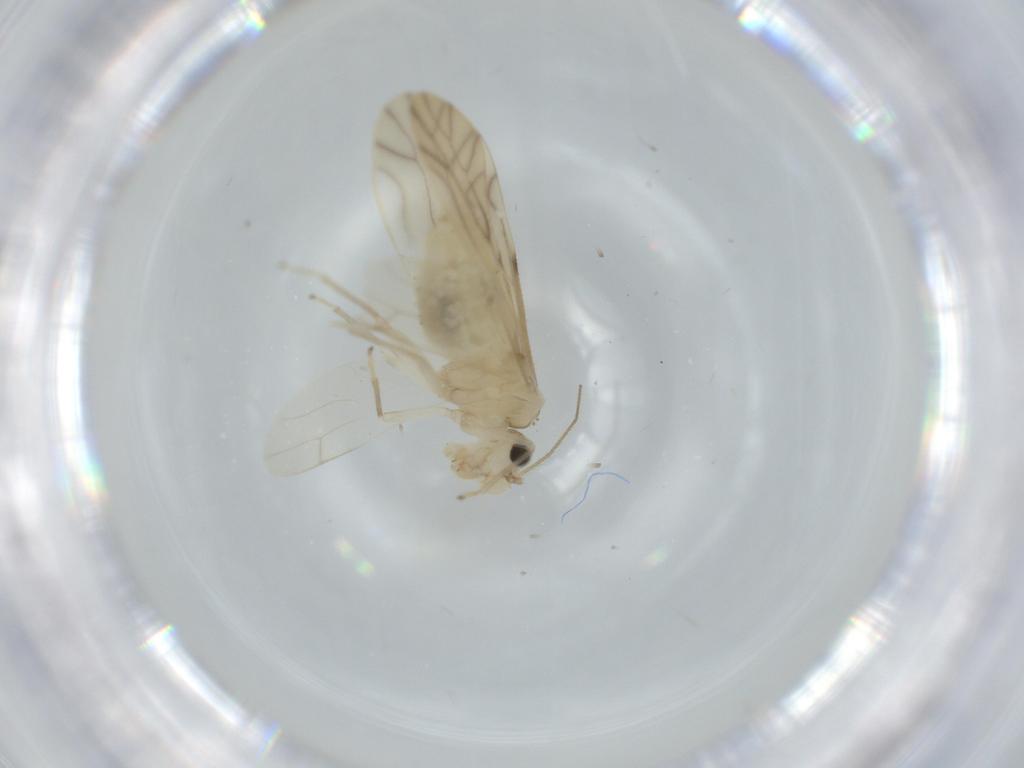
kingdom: Animalia
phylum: Arthropoda
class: Insecta
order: Psocodea
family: Caeciliusidae
